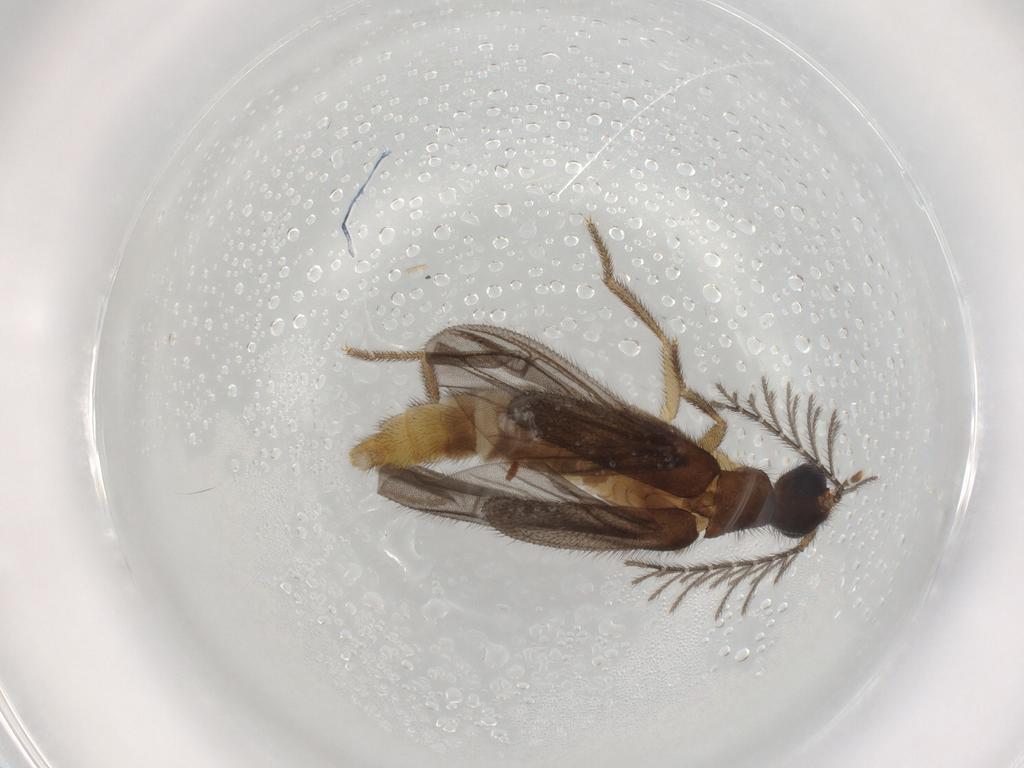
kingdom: Animalia
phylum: Arthropoda
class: Insecta
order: Coleoptera
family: Phengodidae
